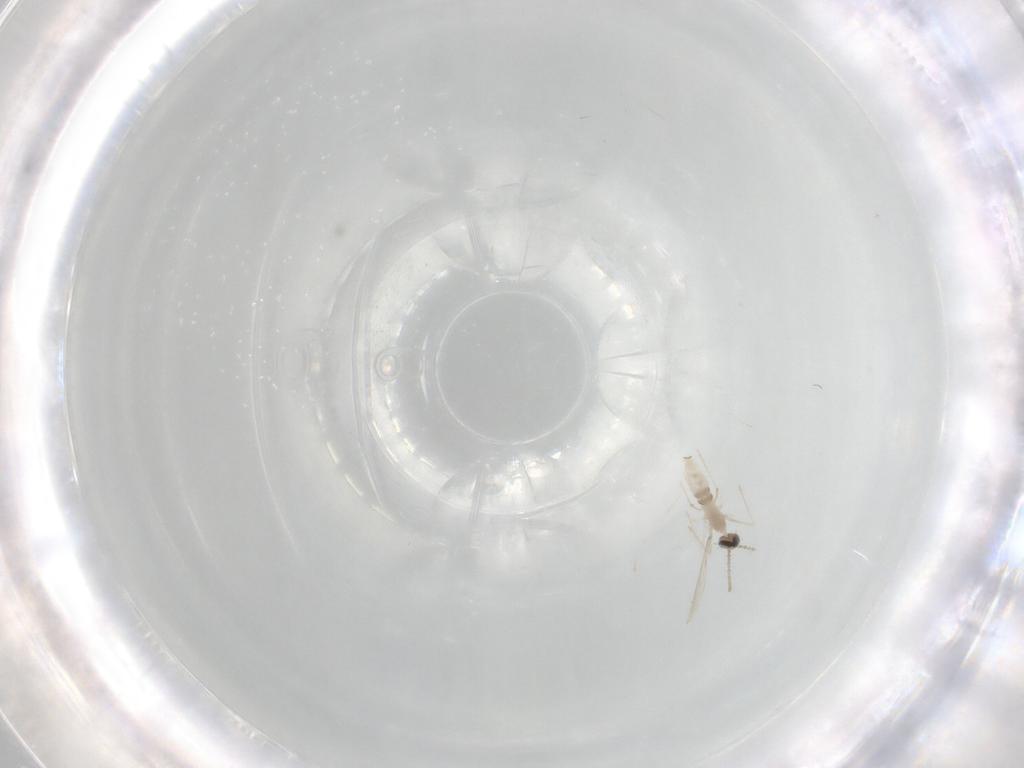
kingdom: Animalia
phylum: Arthropoda
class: Insecta
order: Diptera
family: Cecidomyiidae
